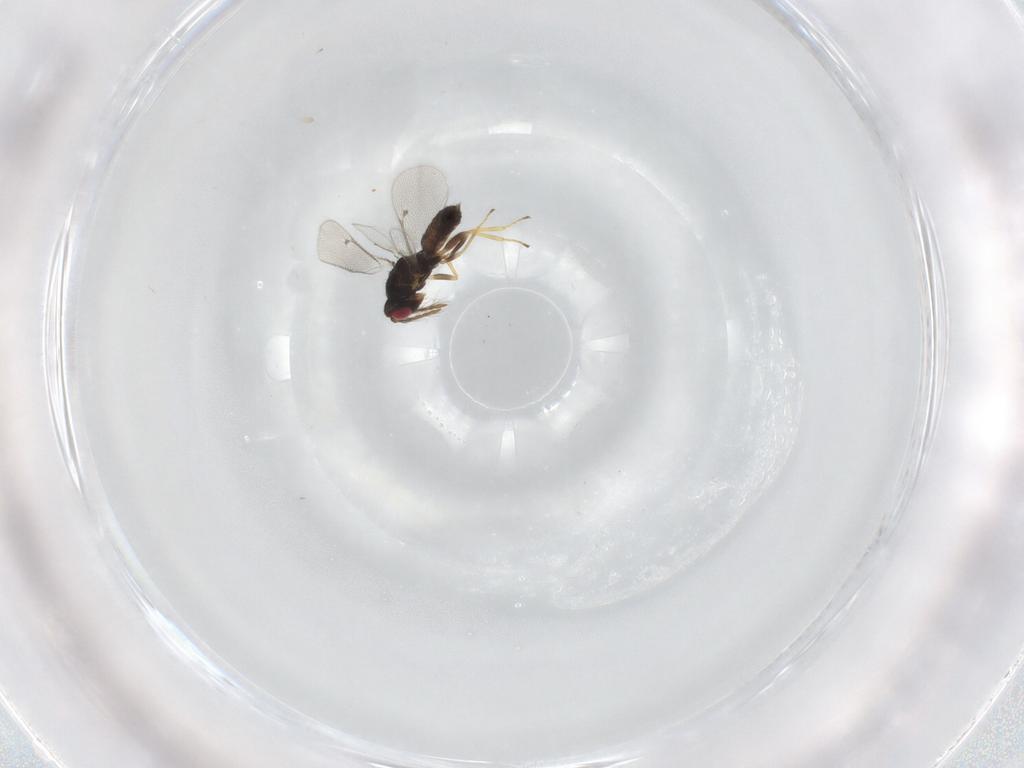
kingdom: Animalia
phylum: Arthropoda
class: Insecta
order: Hymenoptera
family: Eulophidae
